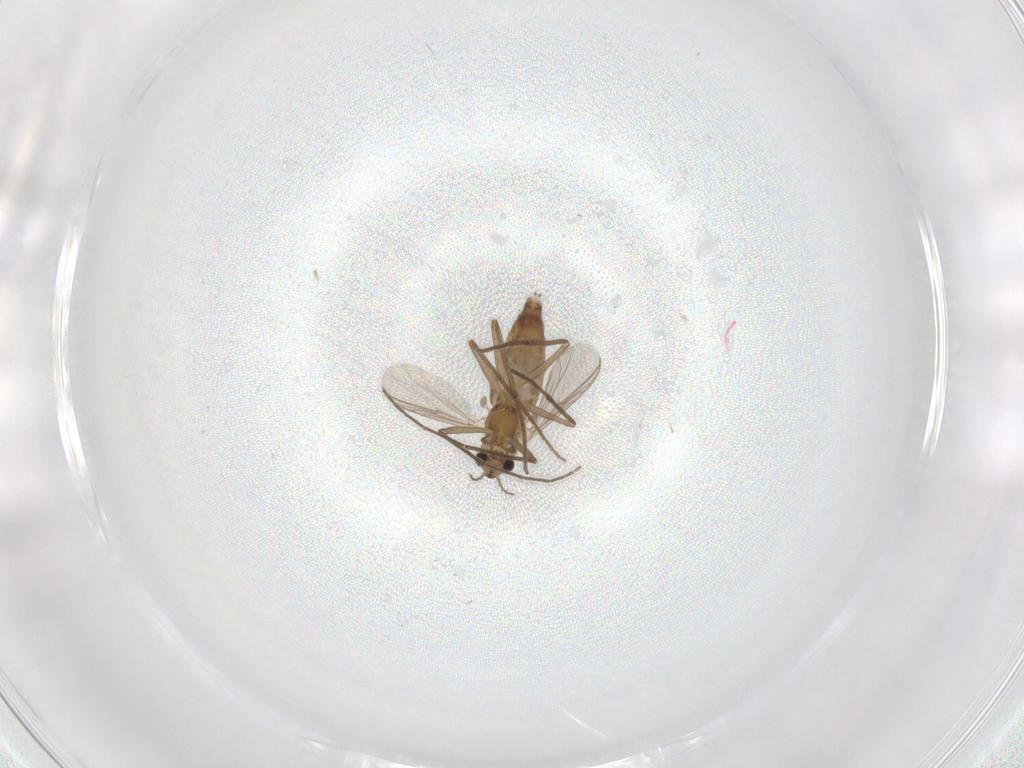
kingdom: Animalia
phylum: Arthropoda
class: Insecta
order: Diptera
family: Chironomidae
